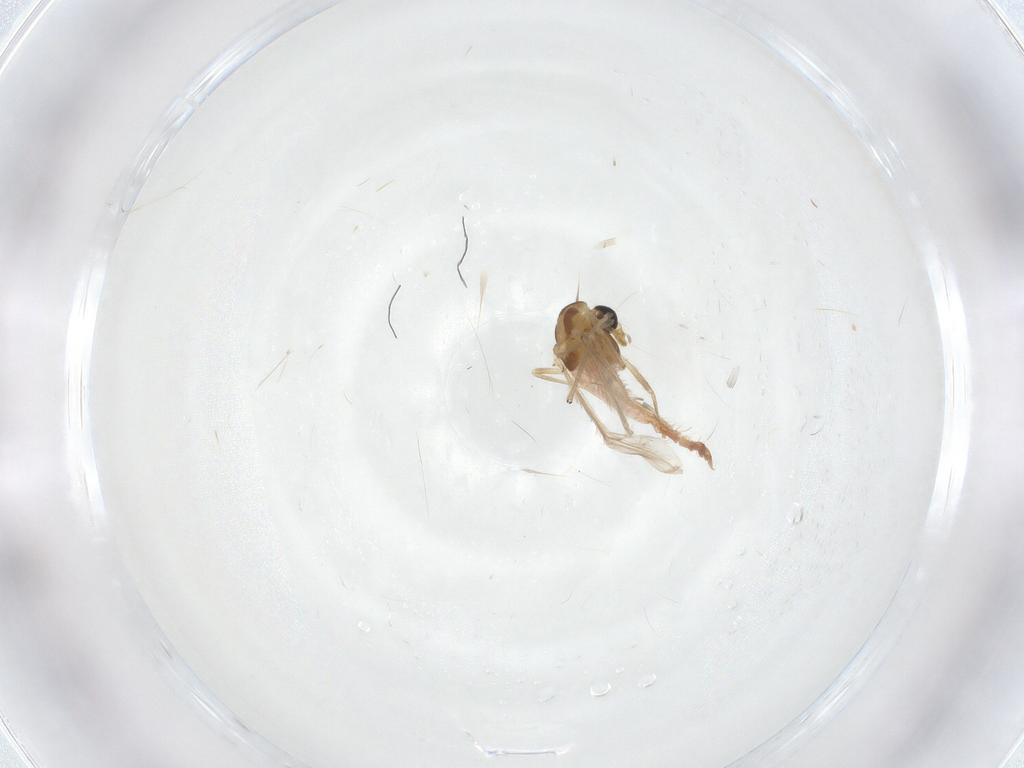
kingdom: Animalia
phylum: Arthropoda
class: Insecta
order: Diptera
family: Chironomidae
